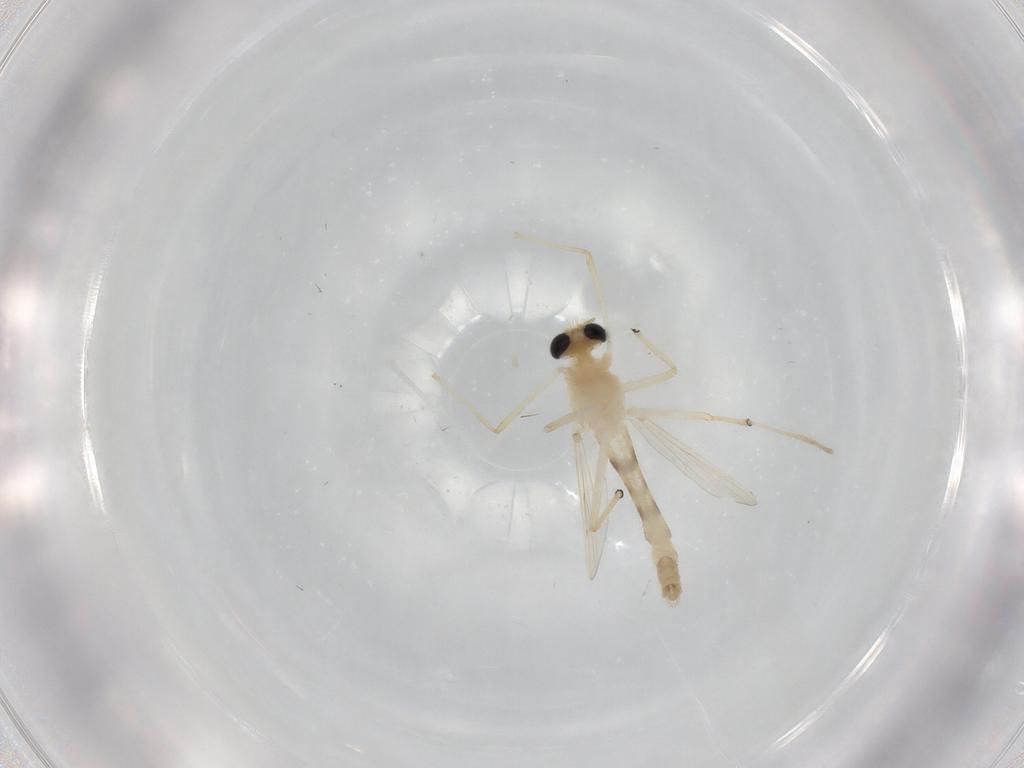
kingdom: Animalia
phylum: Arthropoda
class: Insecta
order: Diptera
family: Chironomidae
